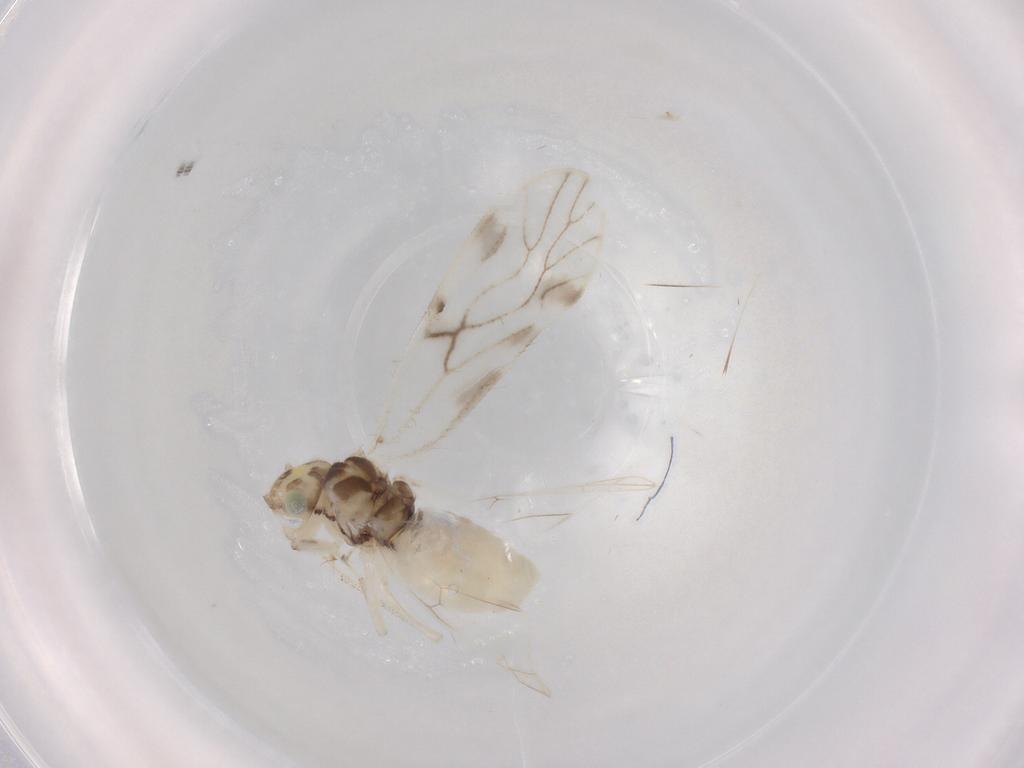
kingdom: Animalia
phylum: Arthropoda
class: Insecta
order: Psocodea
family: Caeciliusidae
